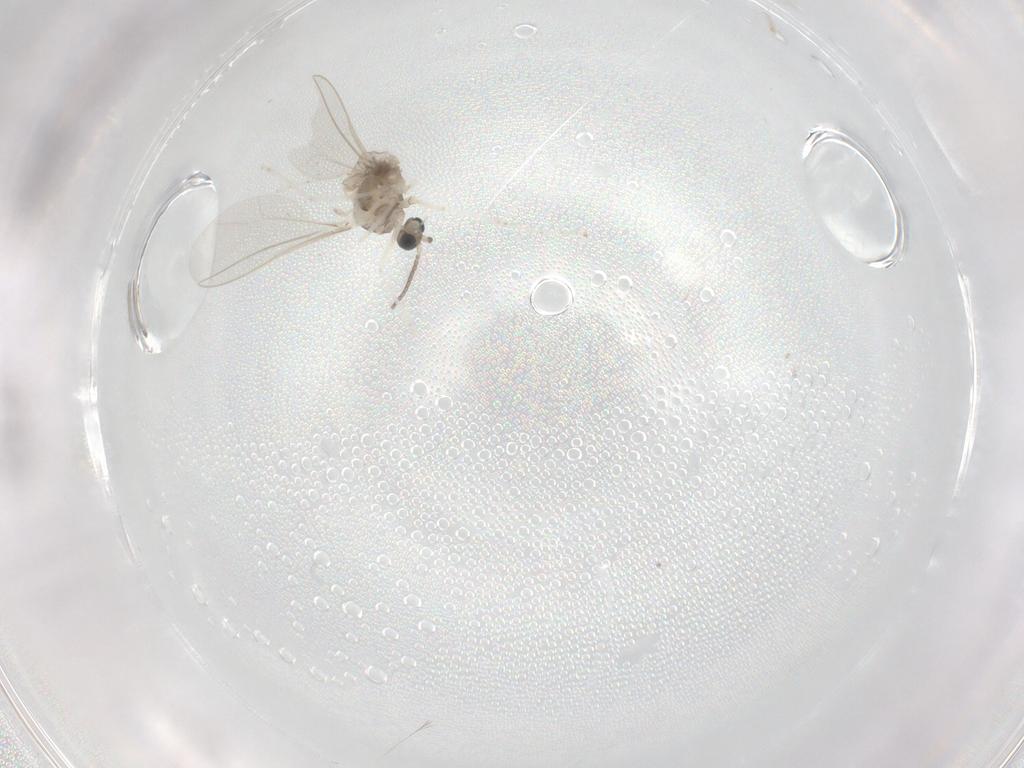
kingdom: Animalia
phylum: Arthropoda
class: Insecta
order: Diptera
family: Cecidomyiidae
